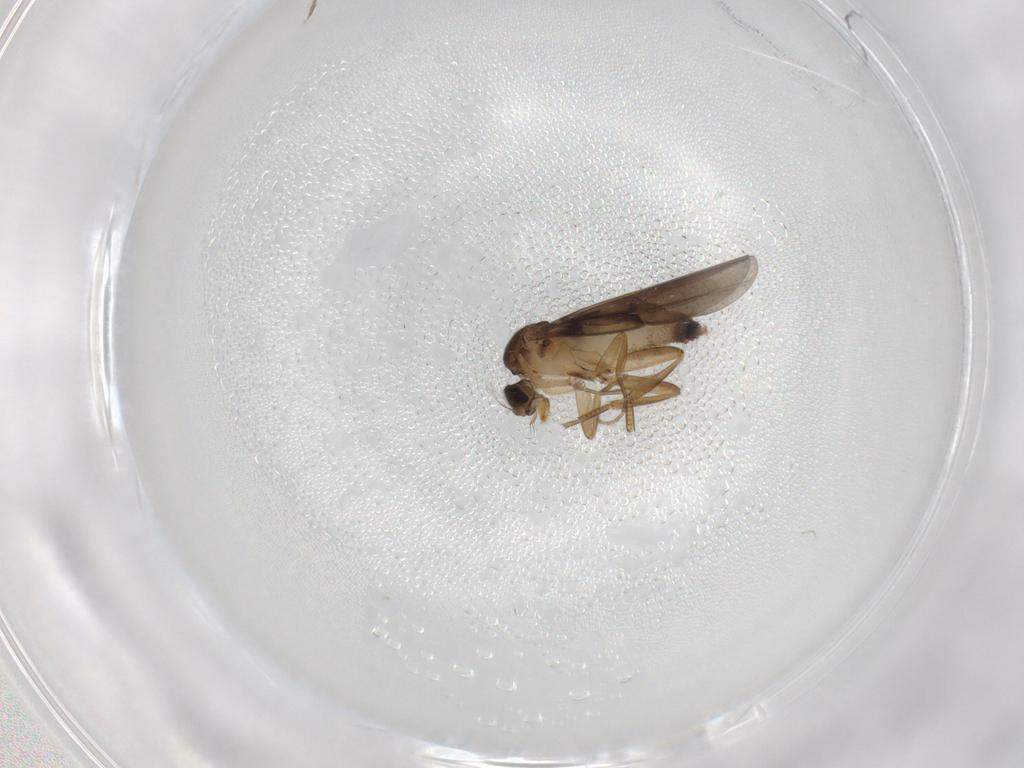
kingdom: Animalia
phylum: Arthropoda
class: Insecta
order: Diptera
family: Phoridae
